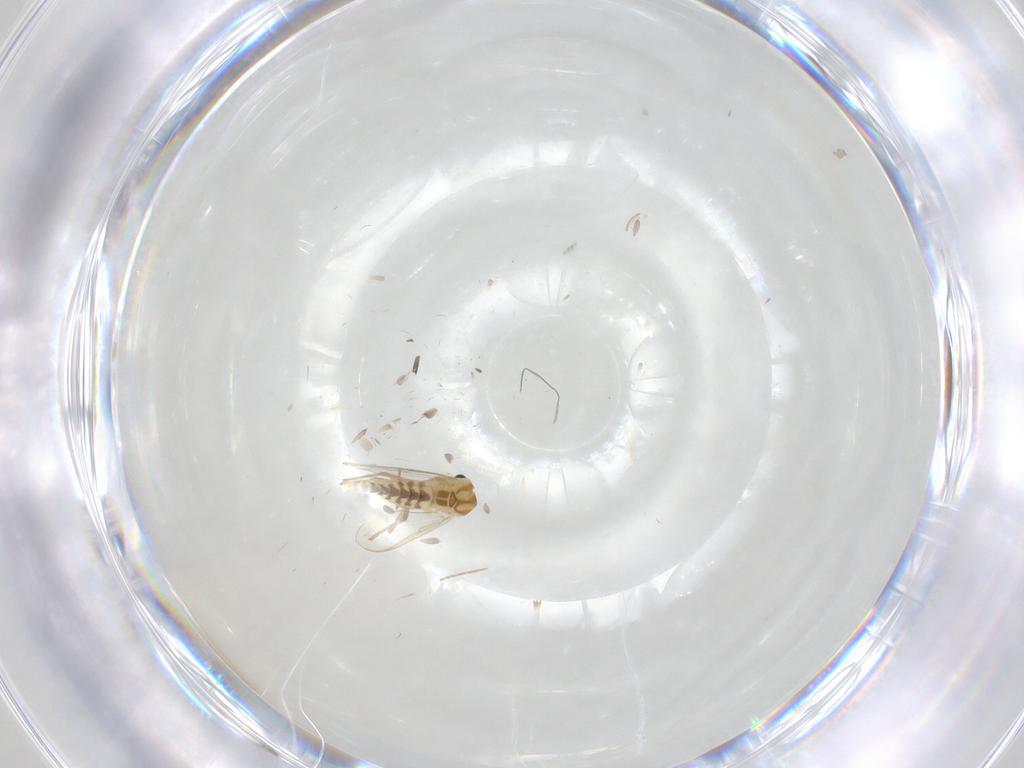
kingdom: Animalia
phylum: Arthropoda
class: Insecta
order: Diptera
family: Chironomidae
